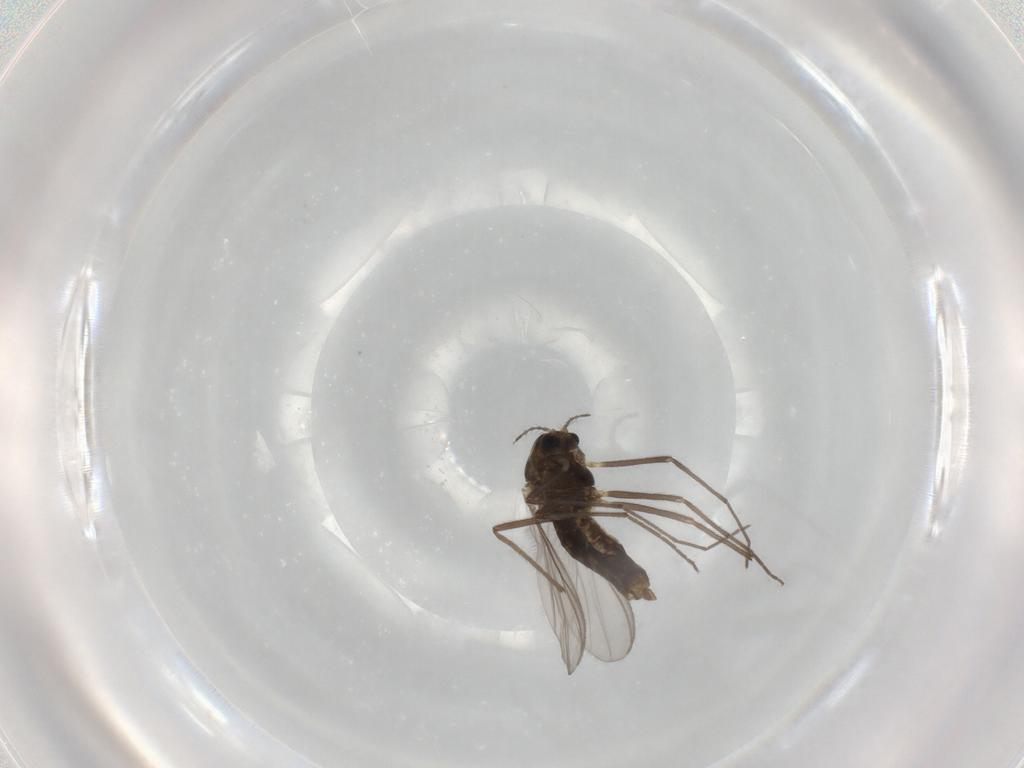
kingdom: Animalia
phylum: Arthropoda
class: Insecta
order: Diptera
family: Chironomidae
